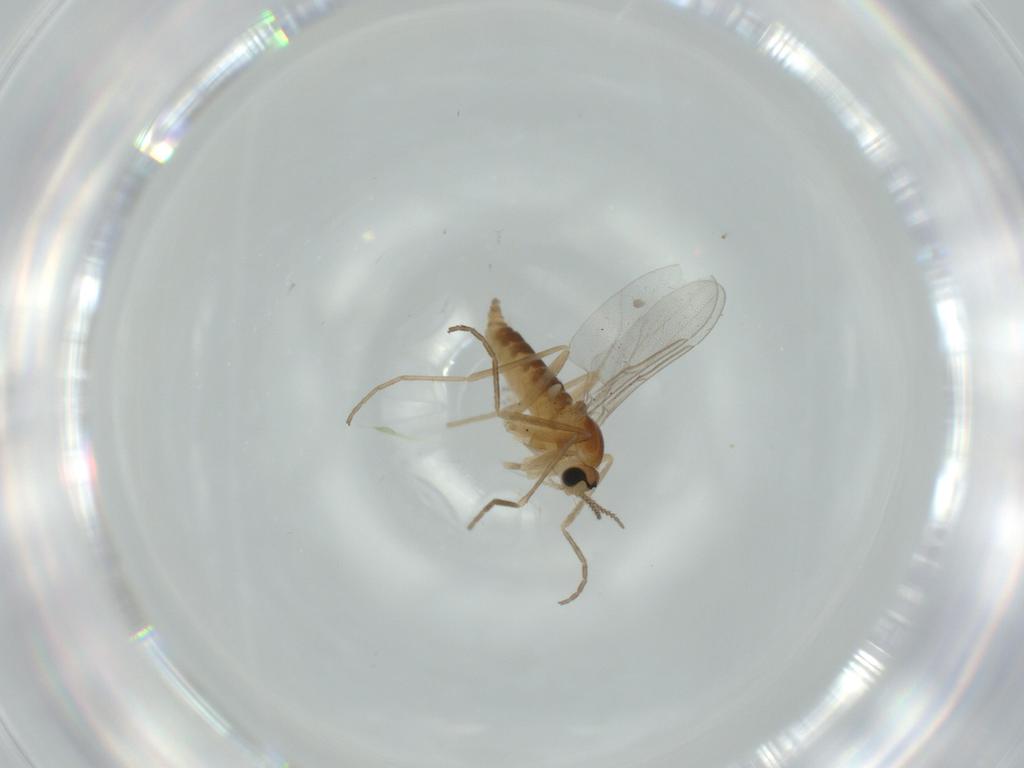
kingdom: Animalia
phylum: Arthropoda
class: Insecta
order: Diptera
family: Cecidomyiidae
